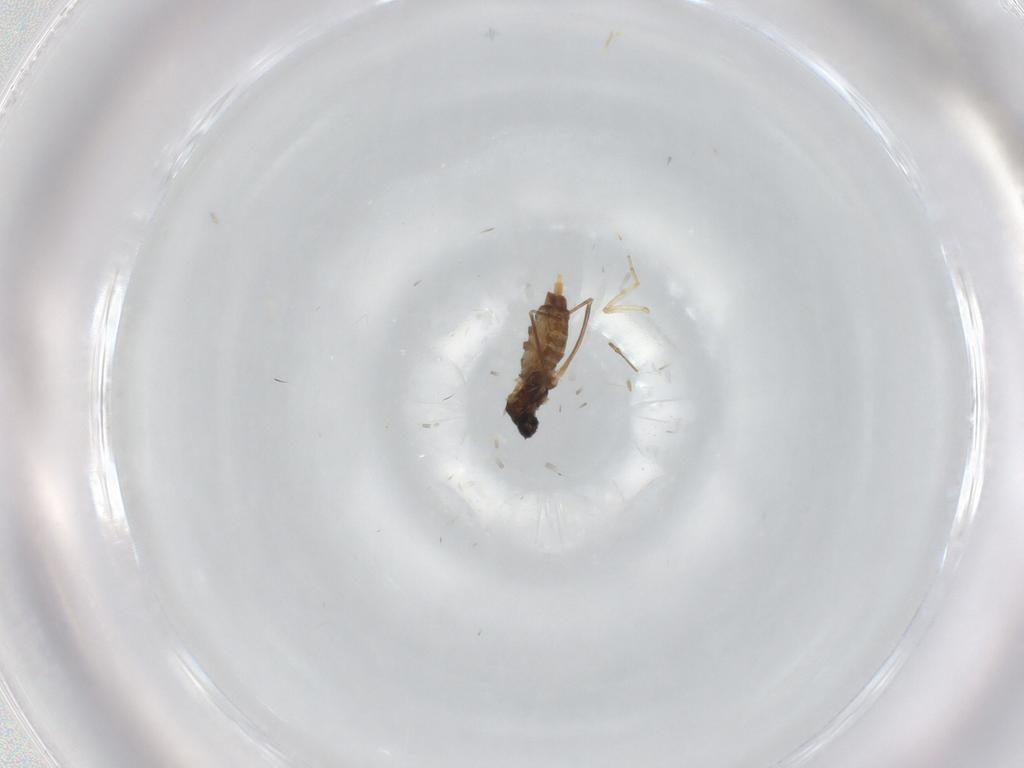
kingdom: Animalia
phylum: Arthropoda
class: Insecta
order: Diptera
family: Cecidomyiidae
